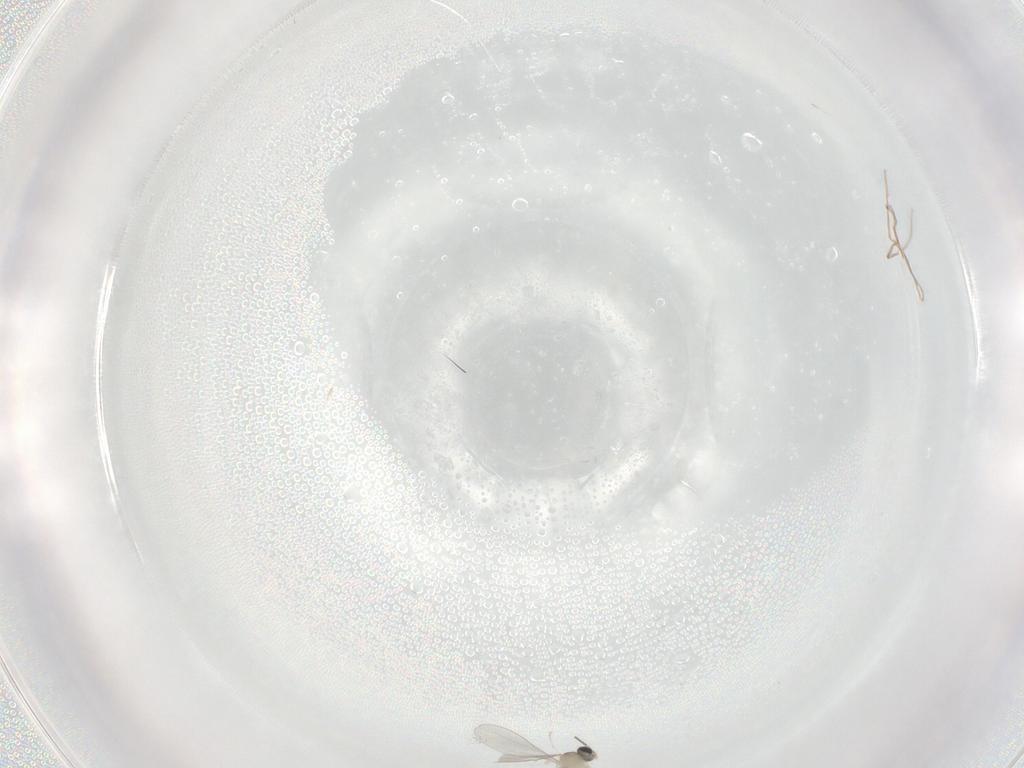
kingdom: Animalia
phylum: Arthropoda
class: Insecta
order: Diptera
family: Cecidomyiidae
